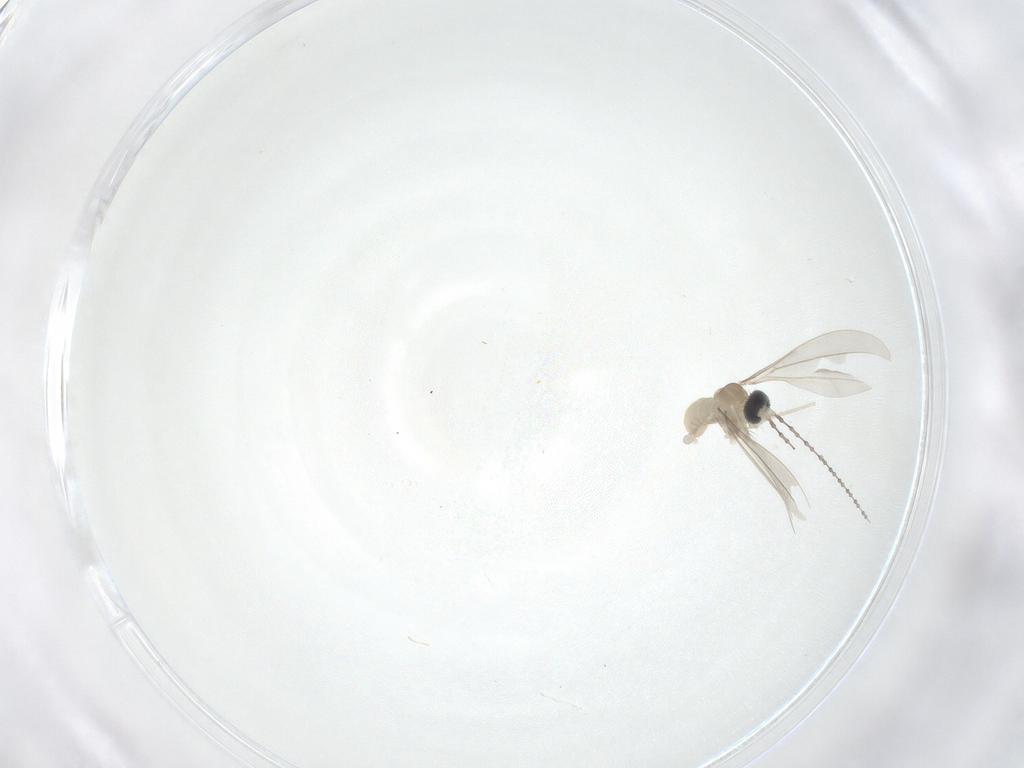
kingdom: Animalia
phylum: Arthropoda
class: Insecta
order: Diptera
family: Cecidomyiidae
